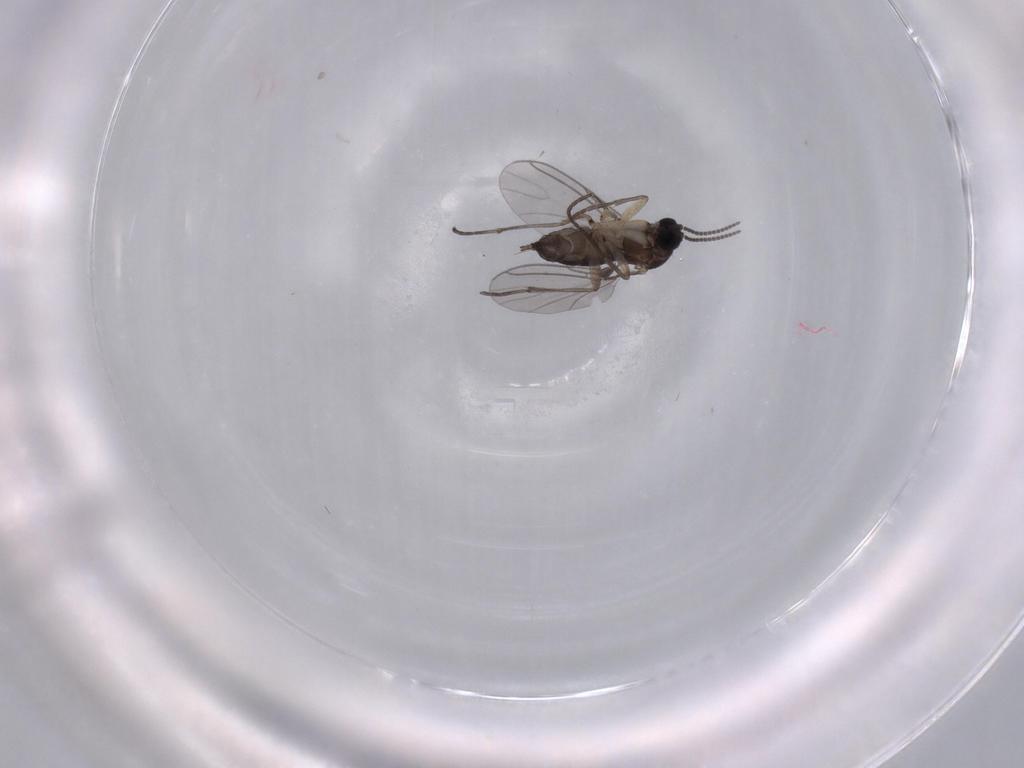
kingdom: Animalia
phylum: Arthropoda
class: Insecta
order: Diptera
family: Sciaridae
